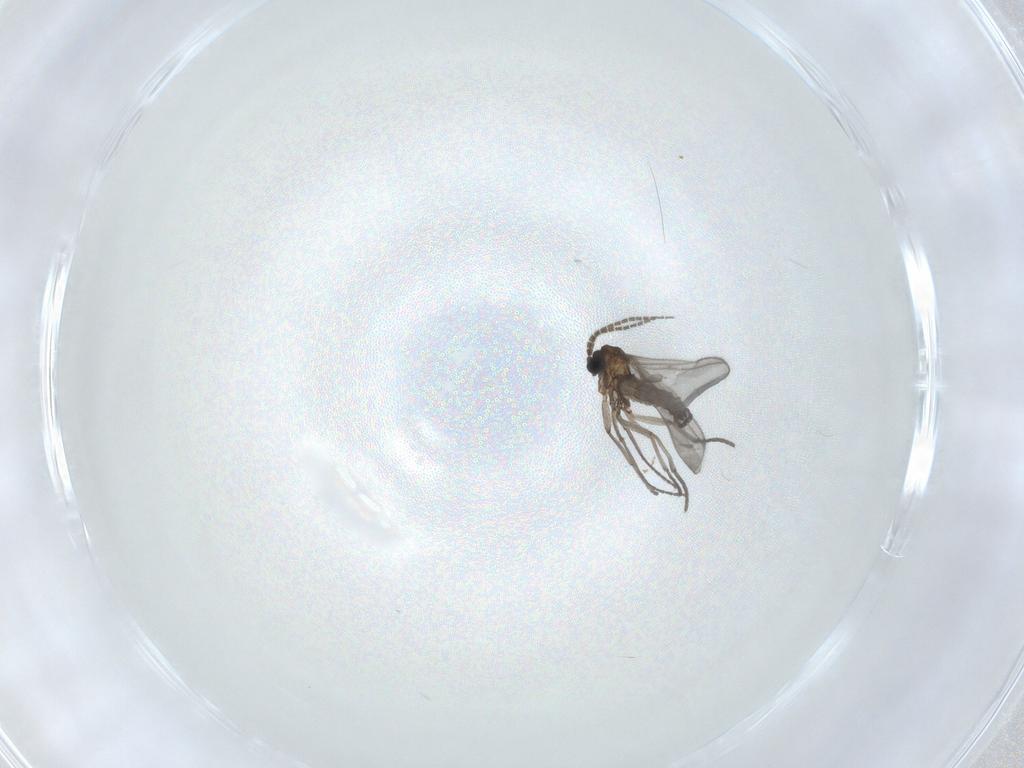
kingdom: Animalia
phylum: Arthropoda
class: Insecta
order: Diptera
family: Sciaridae
